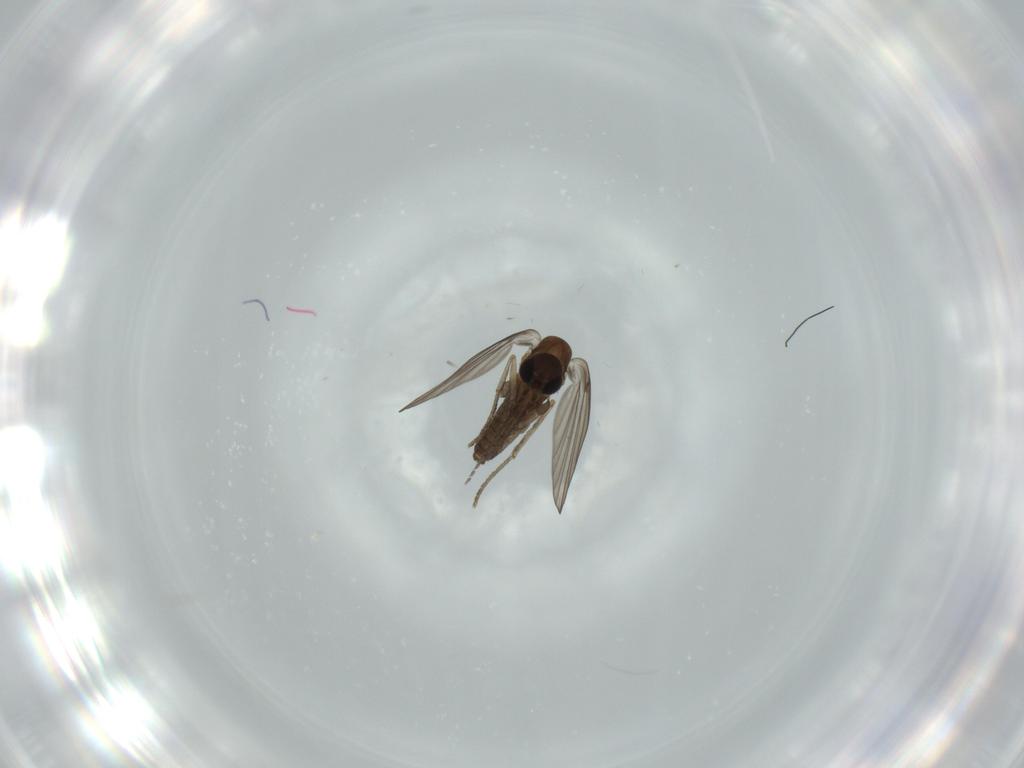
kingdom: Animalia
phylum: Arthropoda
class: Insecta
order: Diptera
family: Psychodidae
